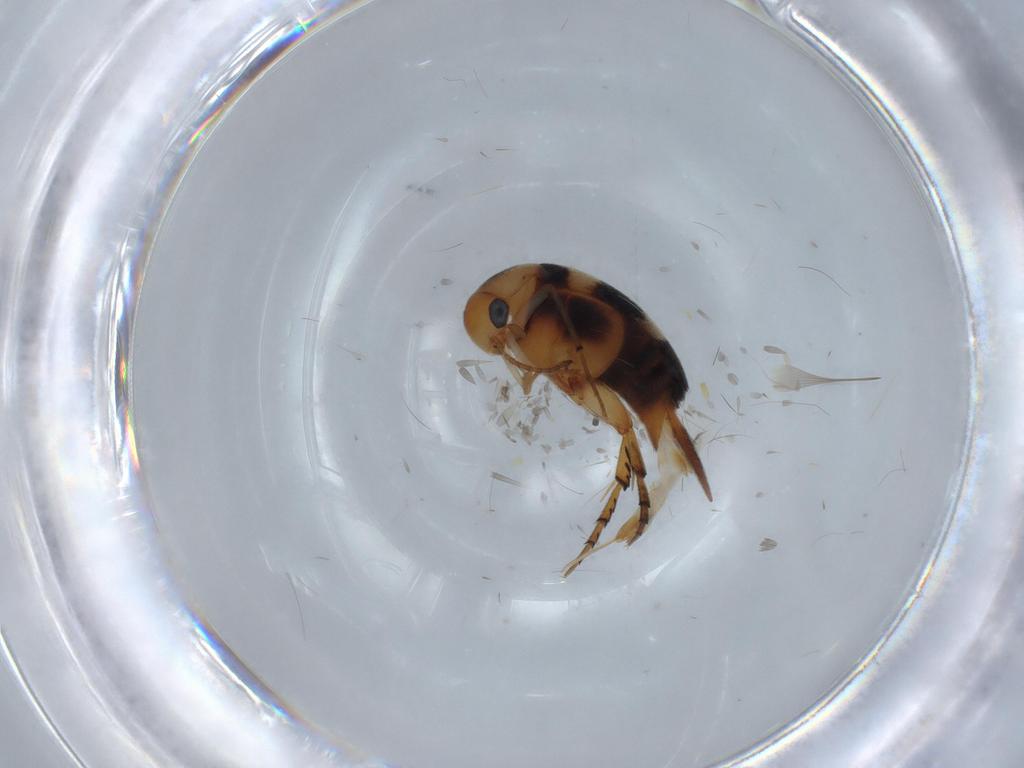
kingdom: Animalia
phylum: Arthropoda
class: Insecta
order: Coleoptera
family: Mordellidae
